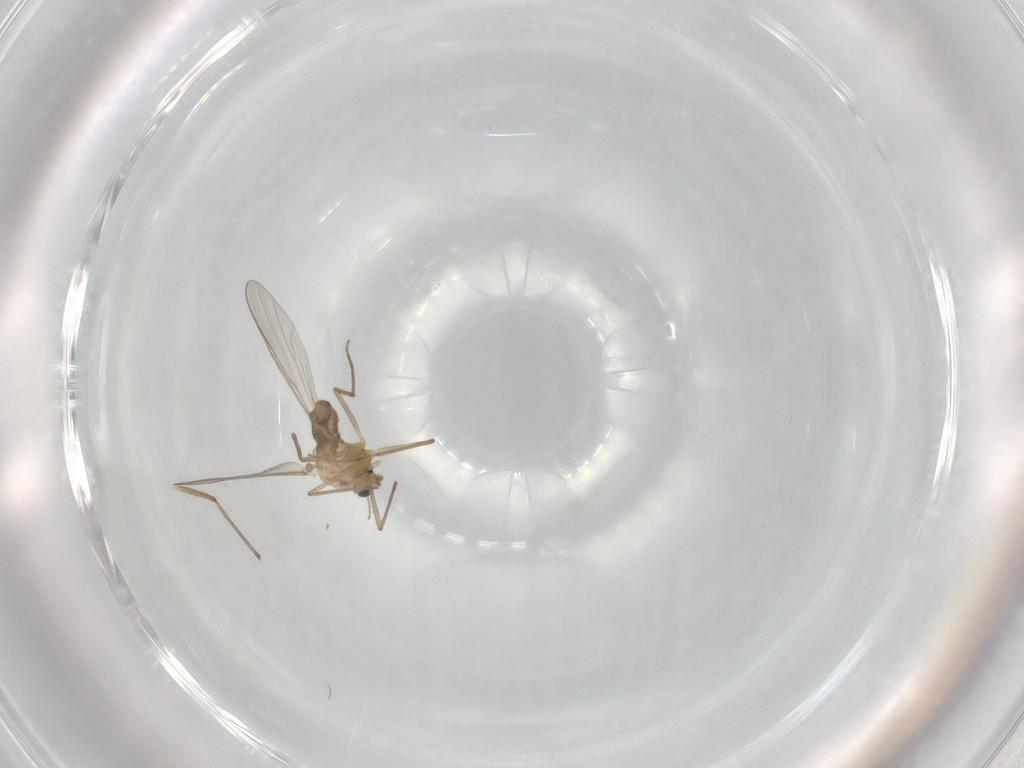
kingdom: Animalia
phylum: Arthropoda
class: Insecta
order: Diptera
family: Chironomidae
